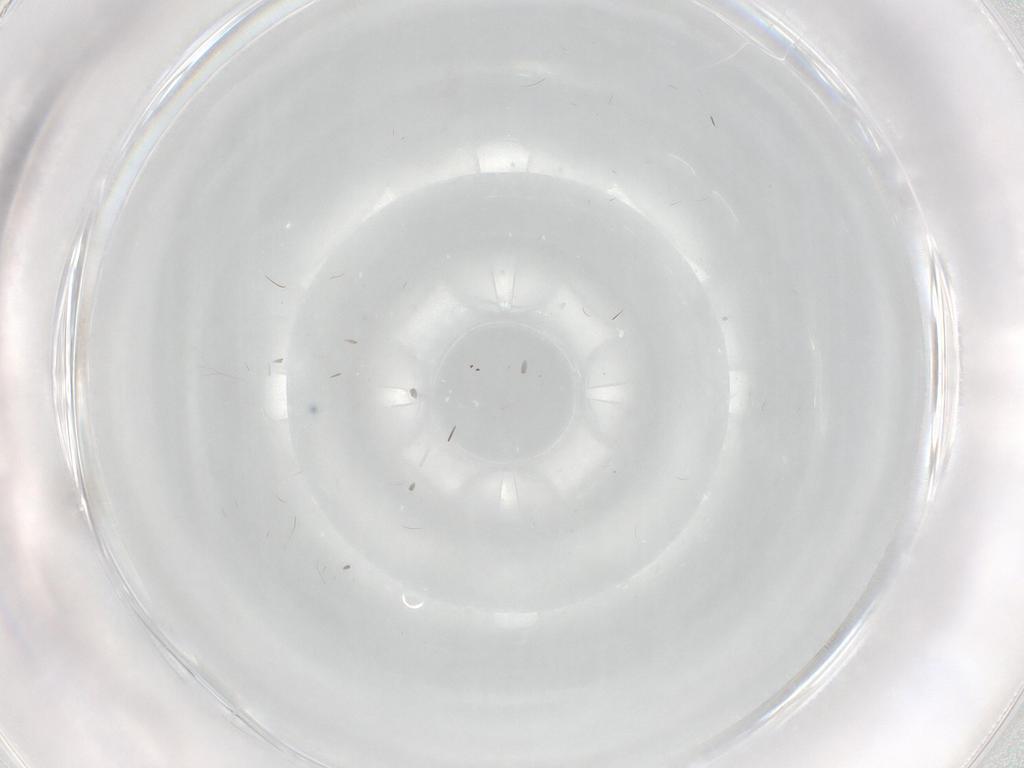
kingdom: Animalia
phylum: Arthropoda
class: Insecta
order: Diptera
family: Scatopsidae
